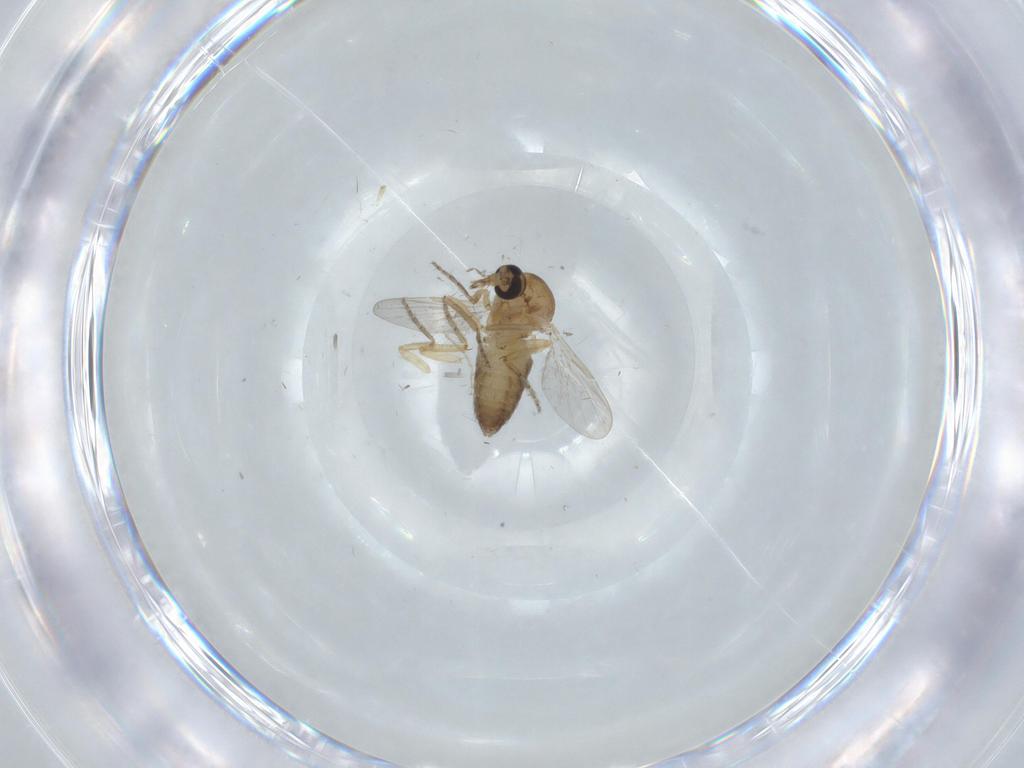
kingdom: Animalia
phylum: Arthropoda
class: Insecta
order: Diptera
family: Ceratopogonidae
